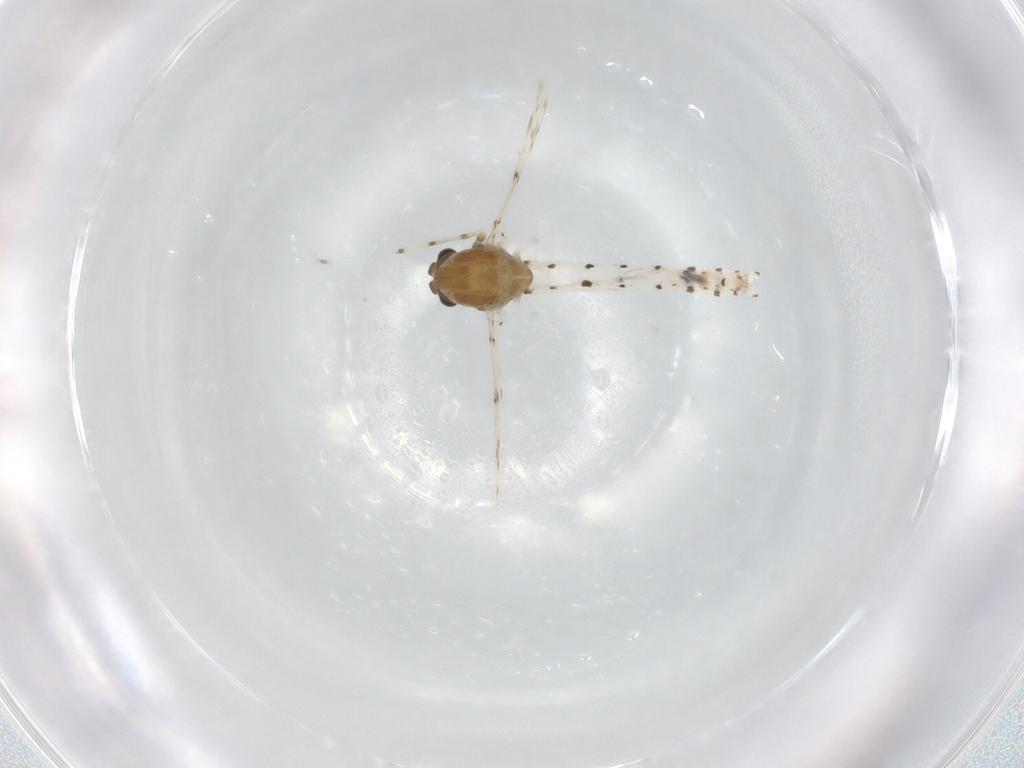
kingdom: Animalia
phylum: Arthropoda
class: Insecta
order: Diptera
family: Chironomidae
